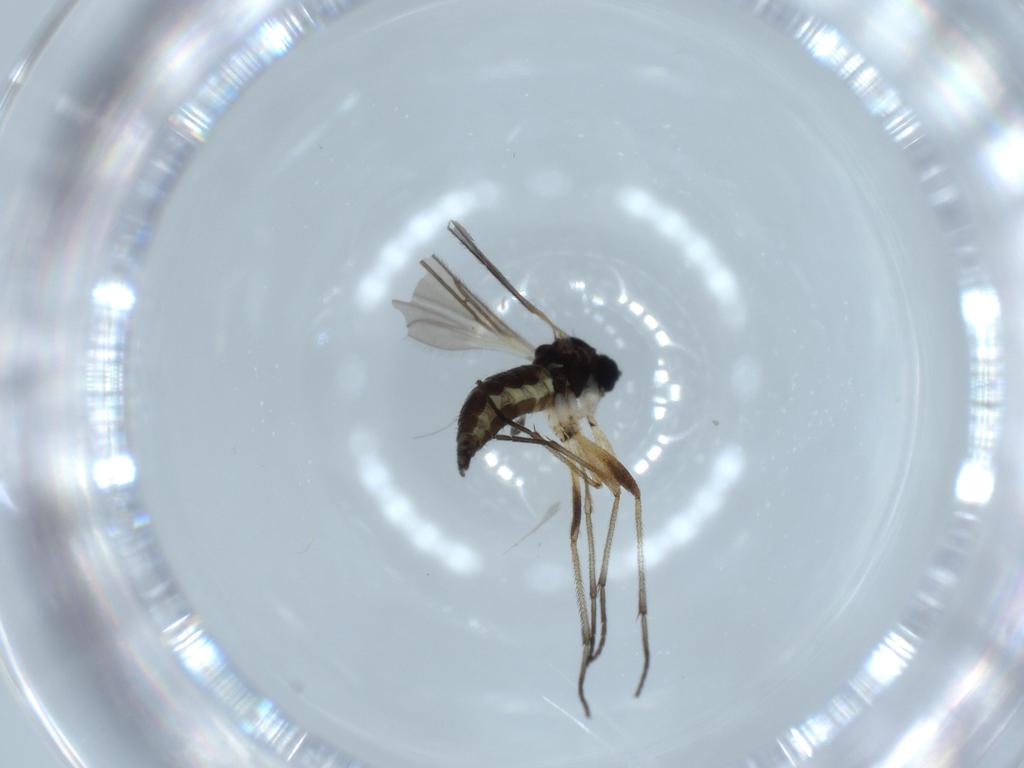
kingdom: Animalia
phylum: Arthropoda
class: Insecta
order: Diptera
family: Sciaridae
